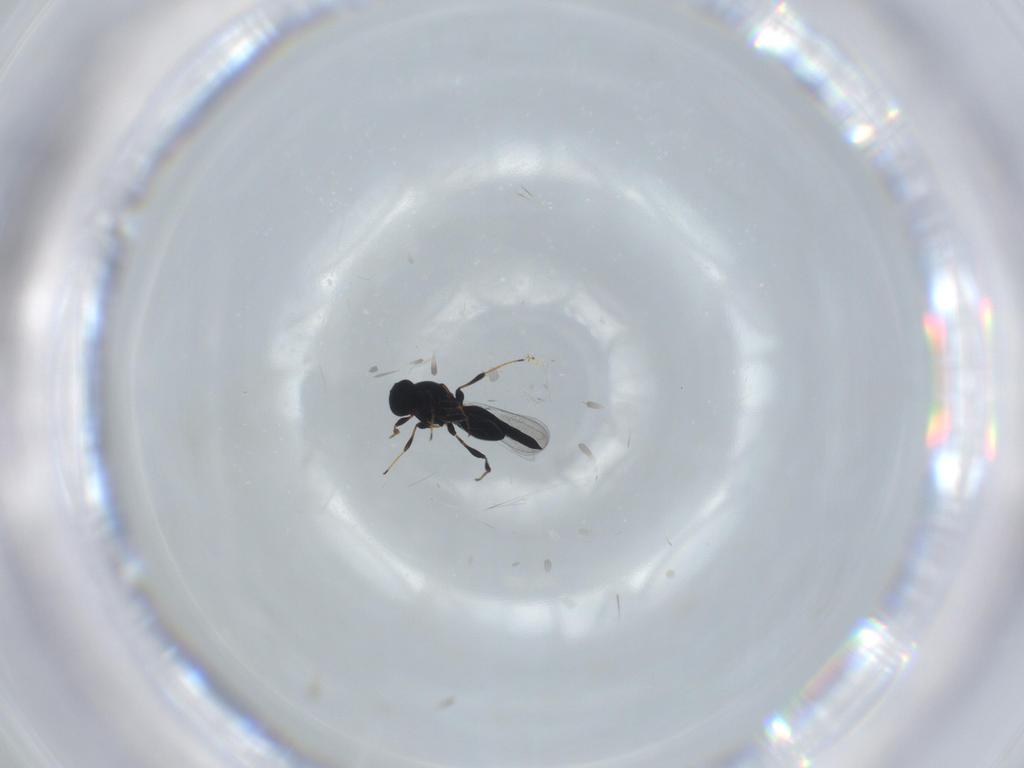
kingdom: Animalia
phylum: Arthropoda
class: Insecta
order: Hymenoptera
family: Platygastridae
